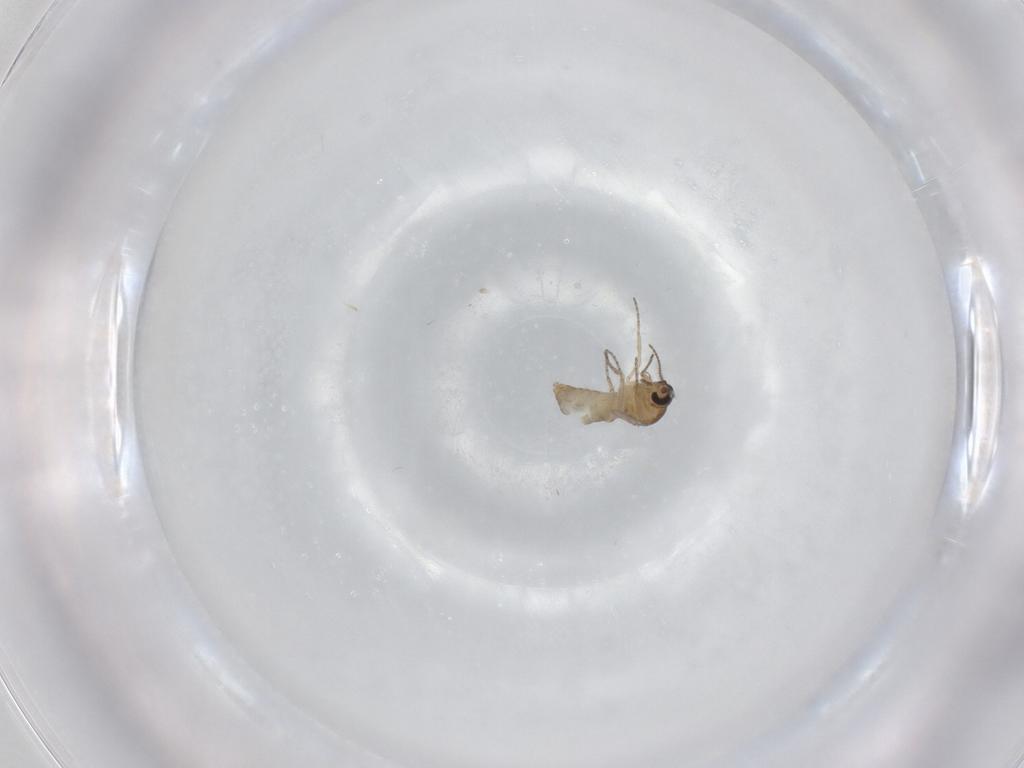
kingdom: Animalia
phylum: Arthropoda
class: Insecta
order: Diptera
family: Ceratopogonidae
